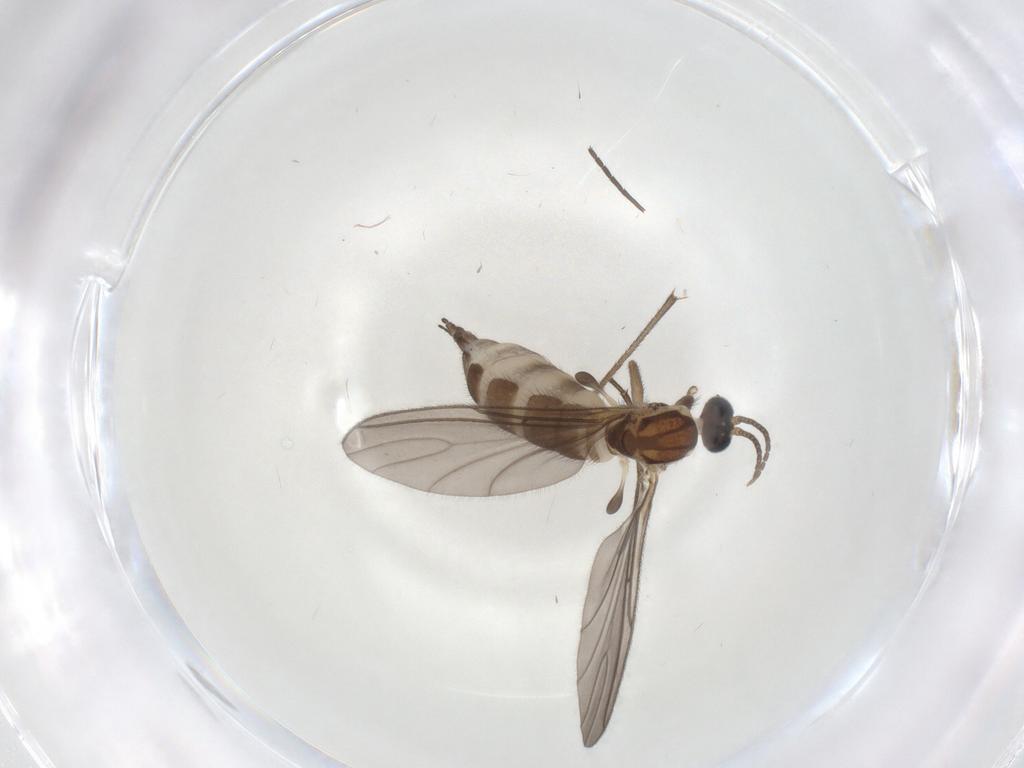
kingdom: Animalia
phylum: Arthropoda
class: Insecta
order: Diptera
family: Sciaridae
